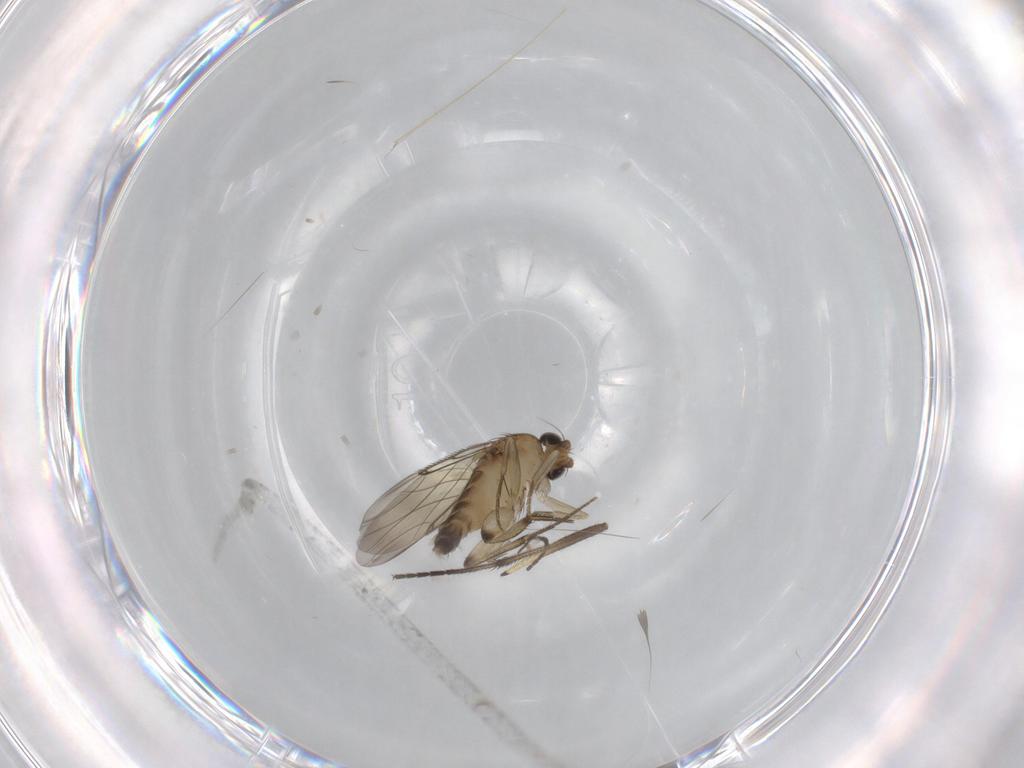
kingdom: Animalia
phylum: Arthropoda
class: Insecta
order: Diptera
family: Phoridae
